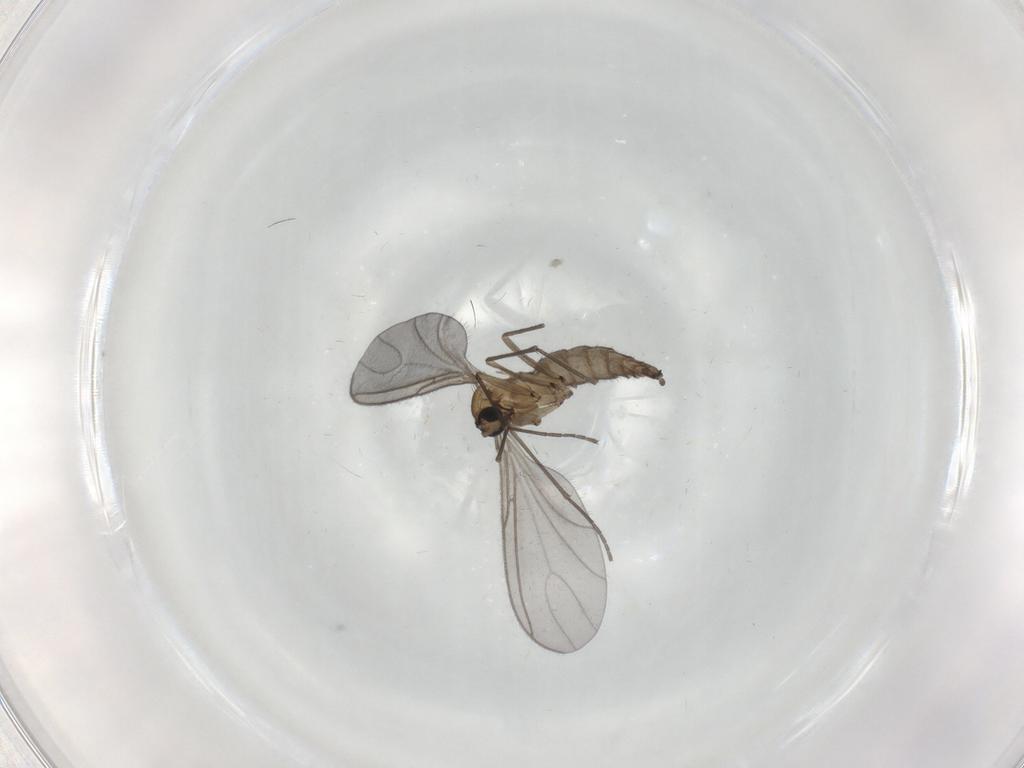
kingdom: Animalia
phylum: Arthropoda
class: Insecta
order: Diptera
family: Sciaridae
